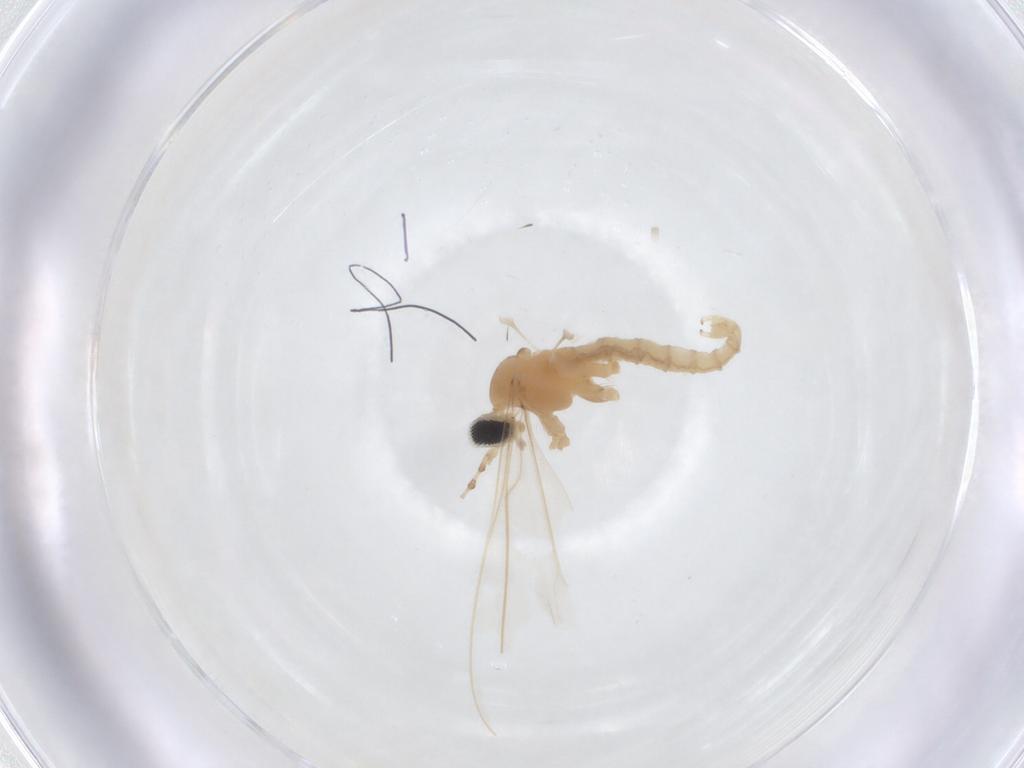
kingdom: Animalia
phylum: Arthropoda
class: Insecta
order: Diptera
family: Cecidomyiidae
